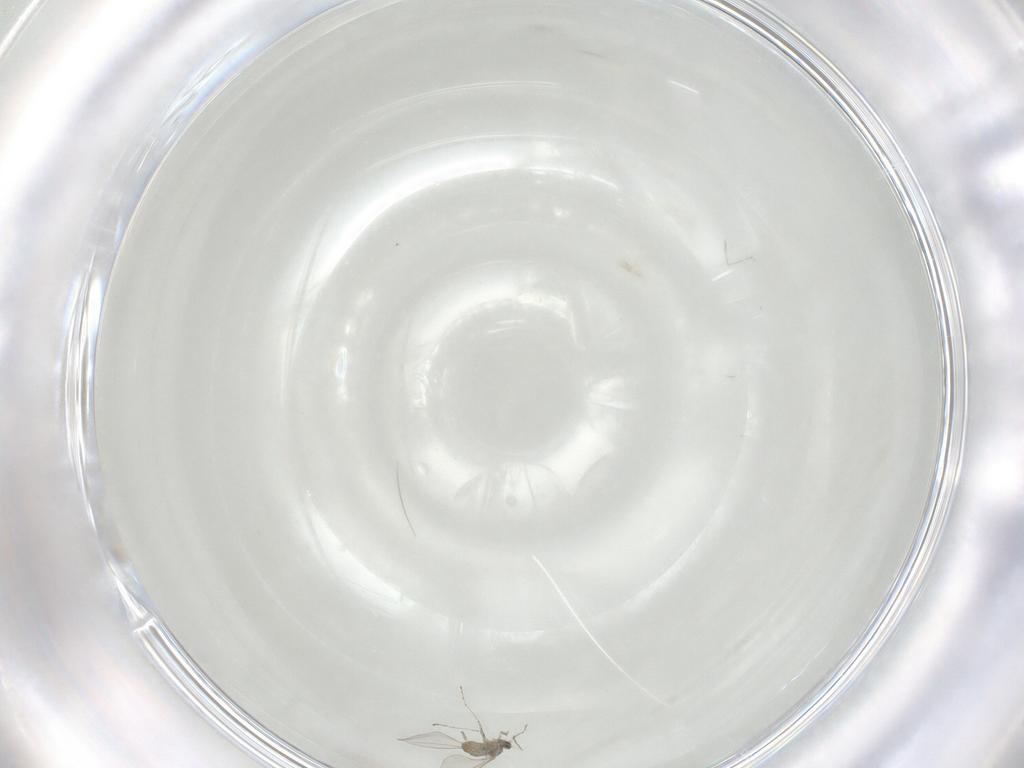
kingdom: Animalia
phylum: Arthropoda
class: Insecta
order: Diptera
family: Cecidomyiidae
